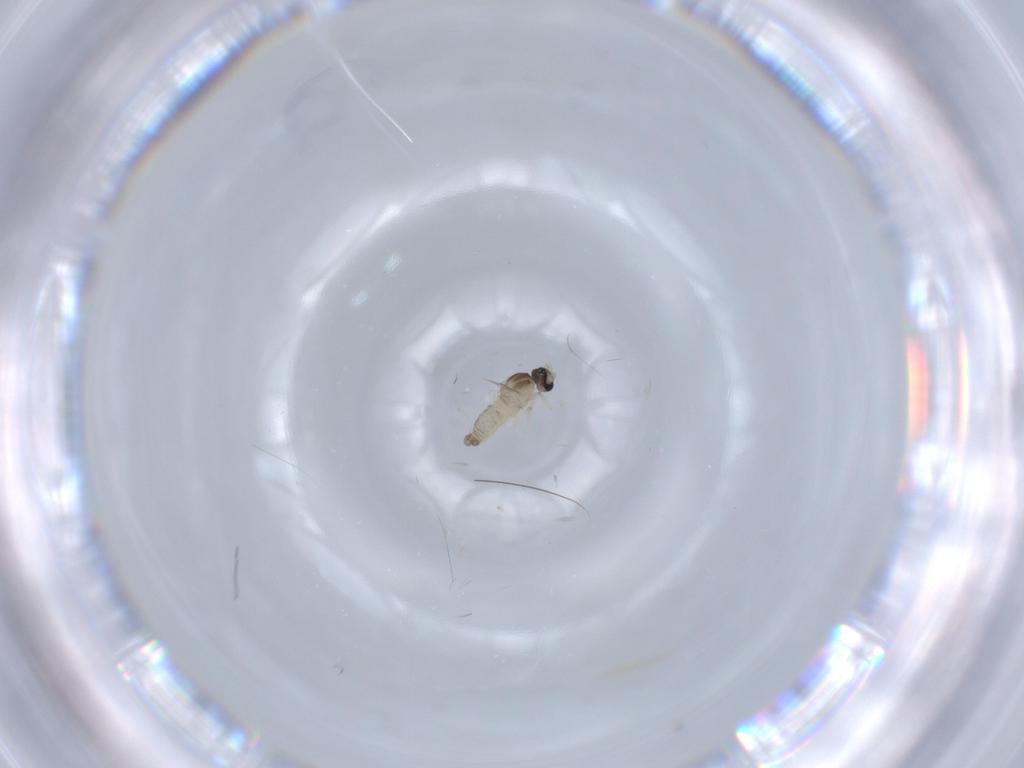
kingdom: Animalia
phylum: Arthropoda
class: Insecta
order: Diptera
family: Cecidomyiidae
